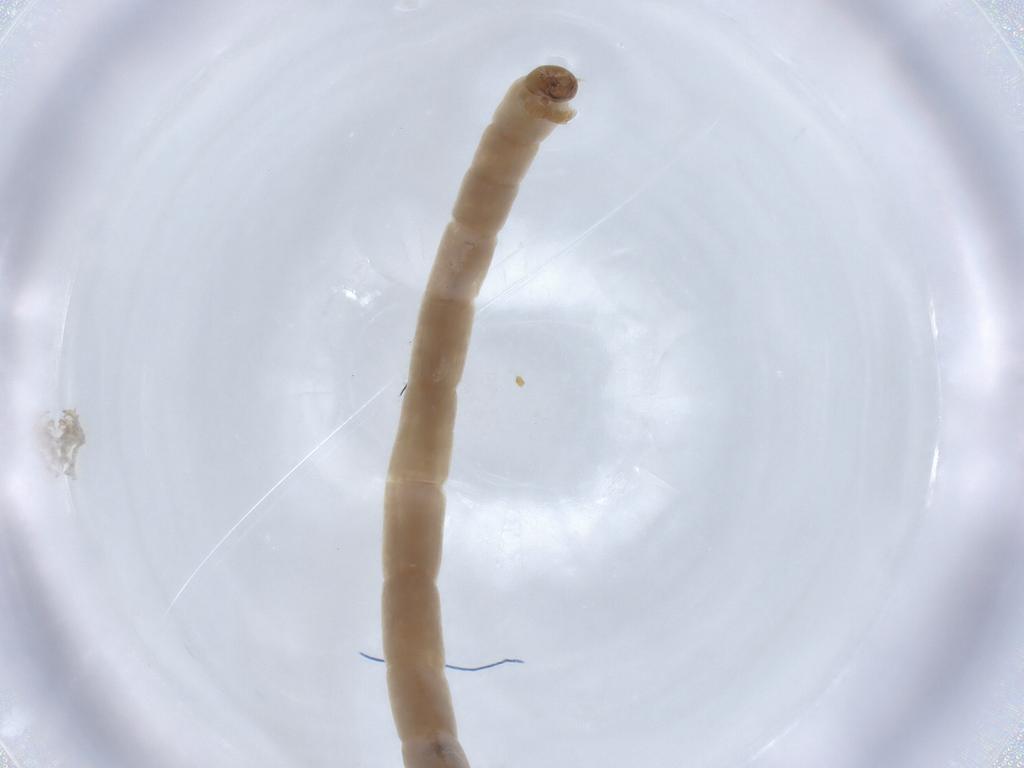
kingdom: Animalia
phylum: Arthropoda
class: Insecta
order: Diptera
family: Chironomidae
